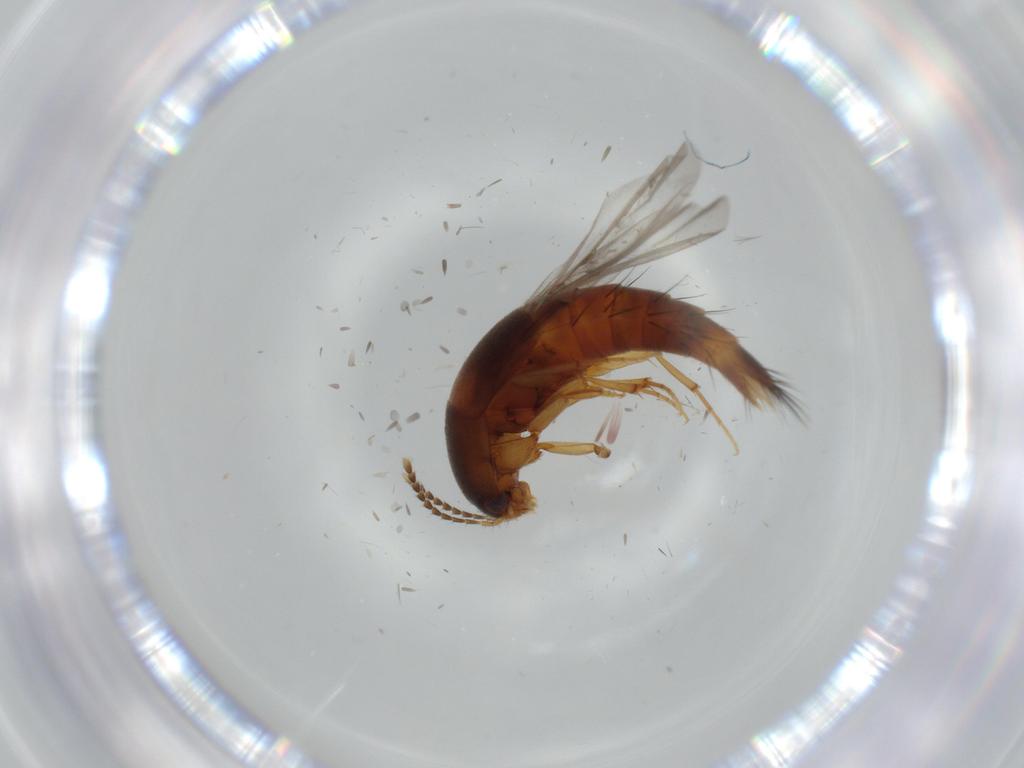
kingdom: Animalia
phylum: Arthropoda
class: Insecta
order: Coleoptera
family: Staphylinidae
